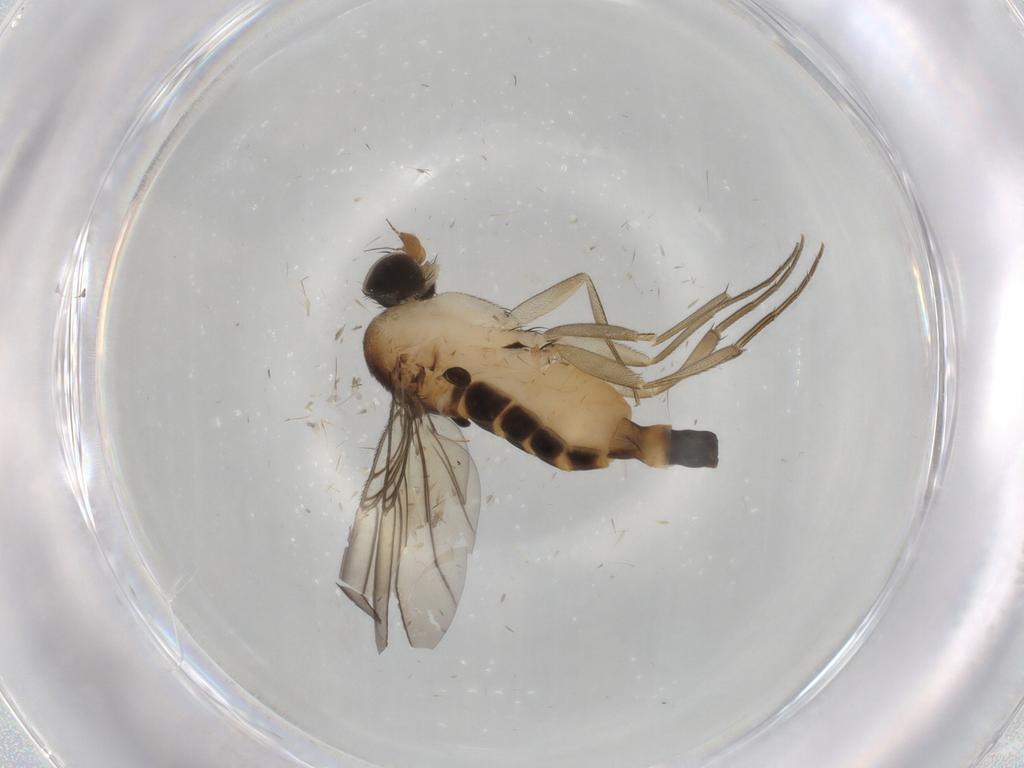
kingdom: Animalia
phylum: Arthropoda
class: Insecta
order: Diptera
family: Phoridae
